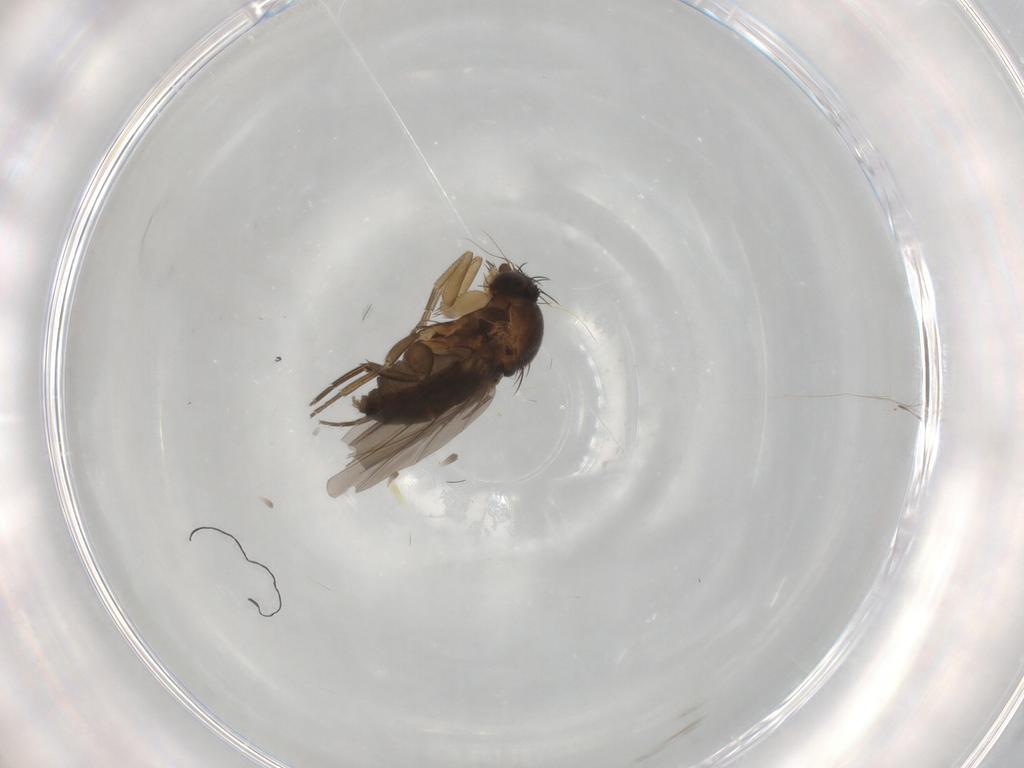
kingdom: Animalia
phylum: Arthropoda
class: Insecta
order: Diptera
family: Phoridae
